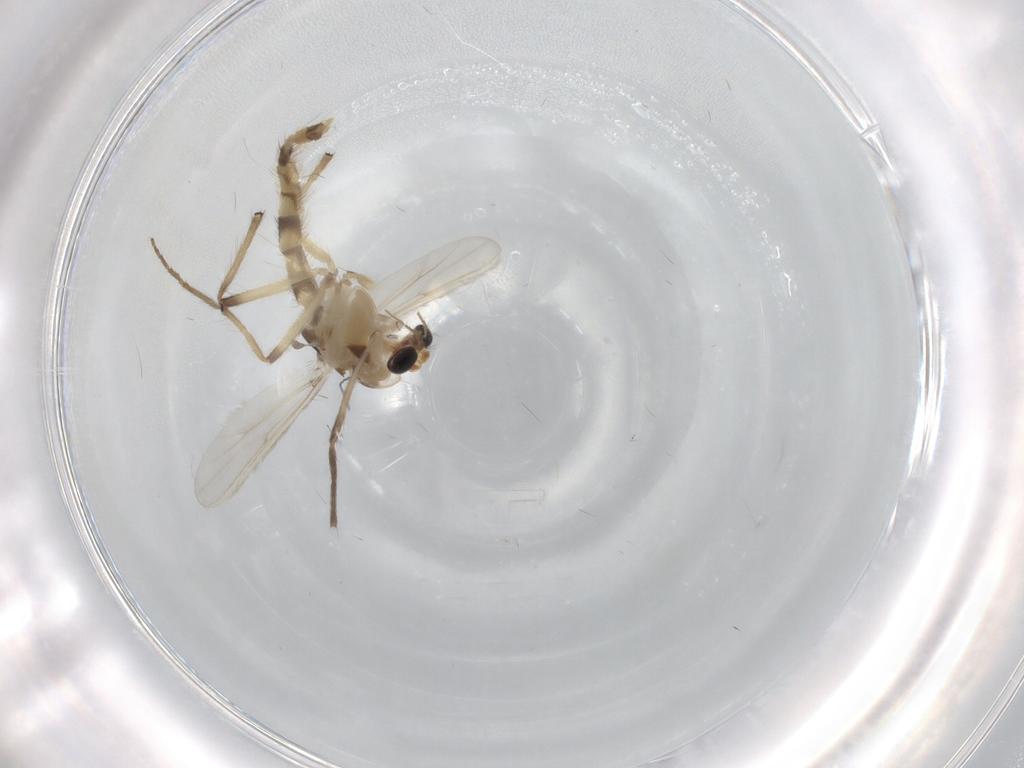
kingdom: Animalia
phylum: Arthropoda
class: Insecta
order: Diptera
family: Chironomidae
